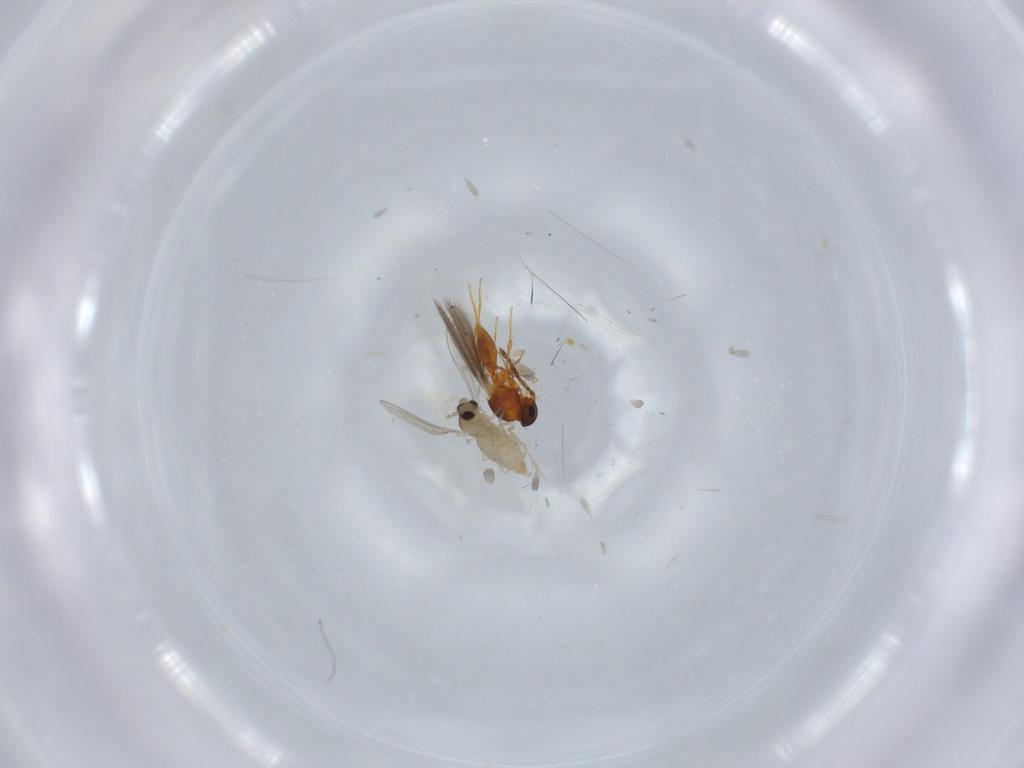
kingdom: Animalia
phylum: Arthropoda
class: Insecta
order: Diptera
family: Cecidomyiidae
